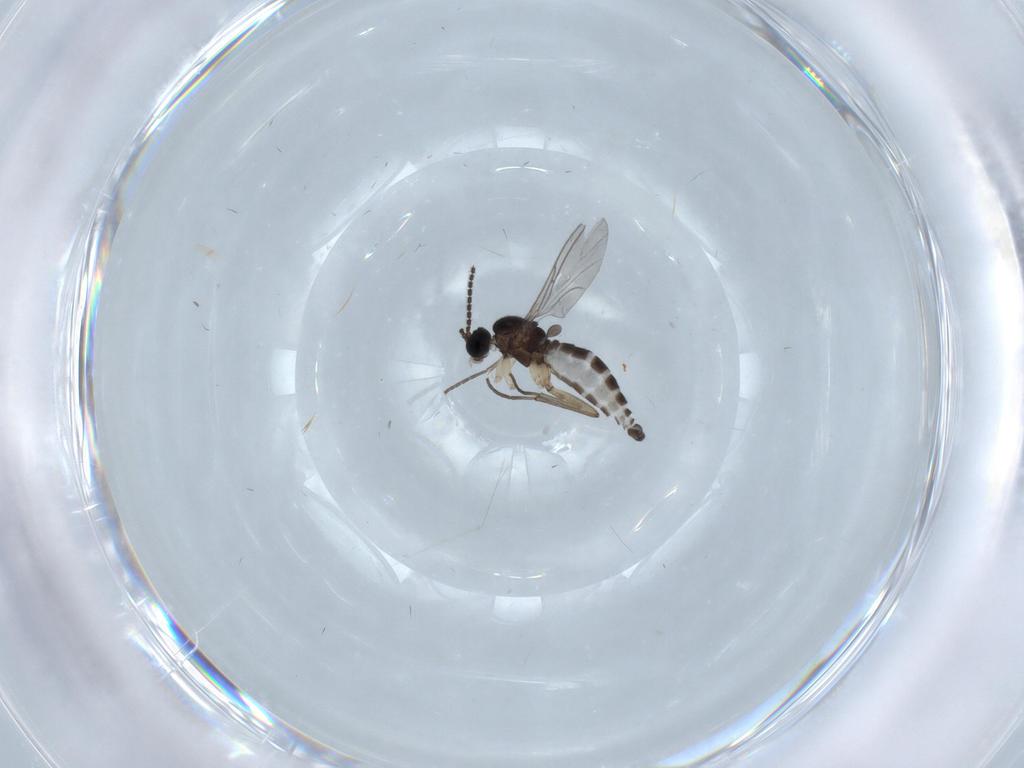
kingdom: Animalia
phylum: Arthropoda
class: Insecta
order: Diptera
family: Sciaridae
